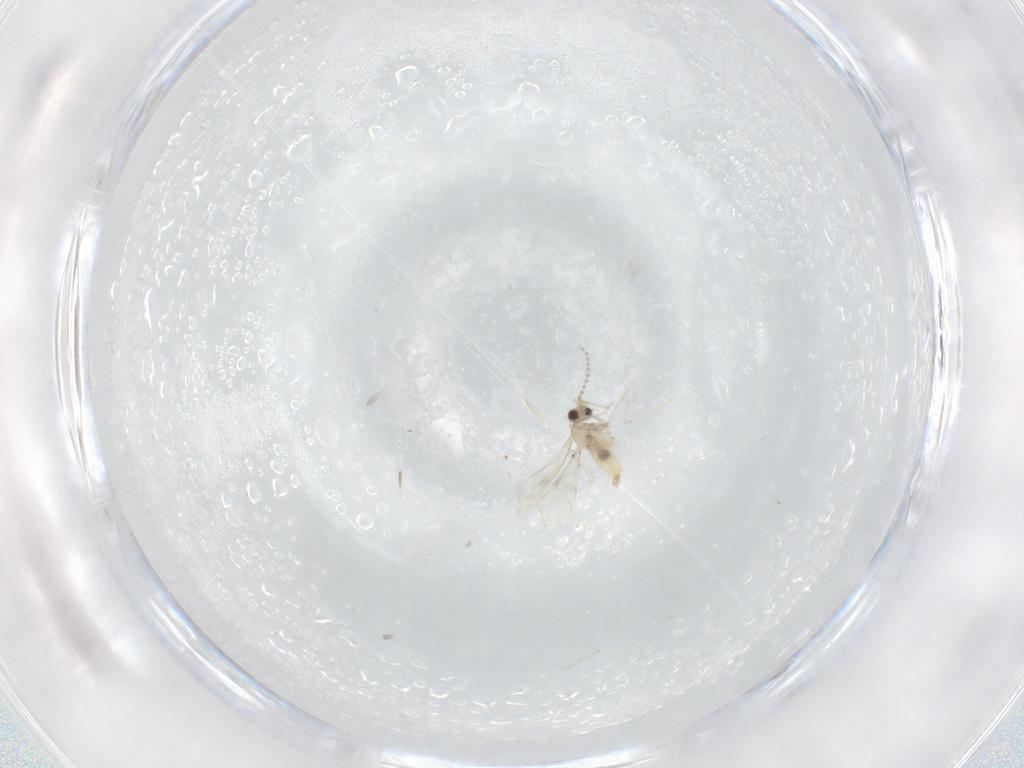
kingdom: Animalia
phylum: Arthropoda
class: Insecta
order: Diptera
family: Cecidomyiidae
